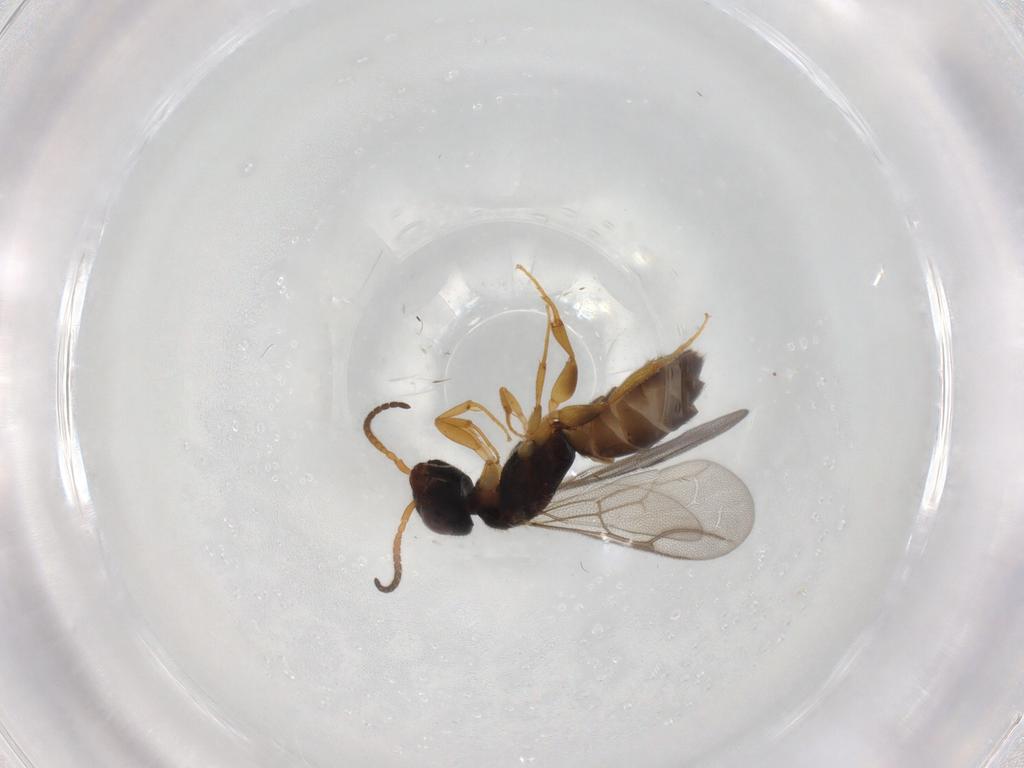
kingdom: Animalia
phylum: Arthropoda
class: Insecta
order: Hymenoptera
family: Bethylidae
